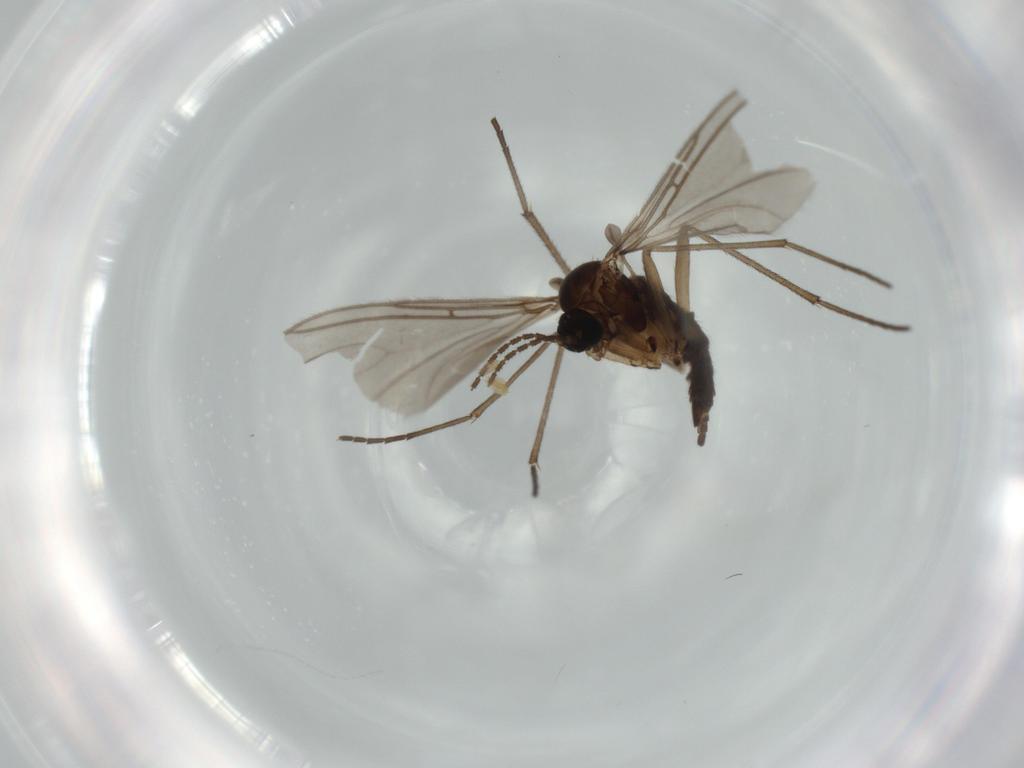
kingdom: Animalia
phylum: Arthropoda
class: Insecta
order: Diptera
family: Sciaridae
